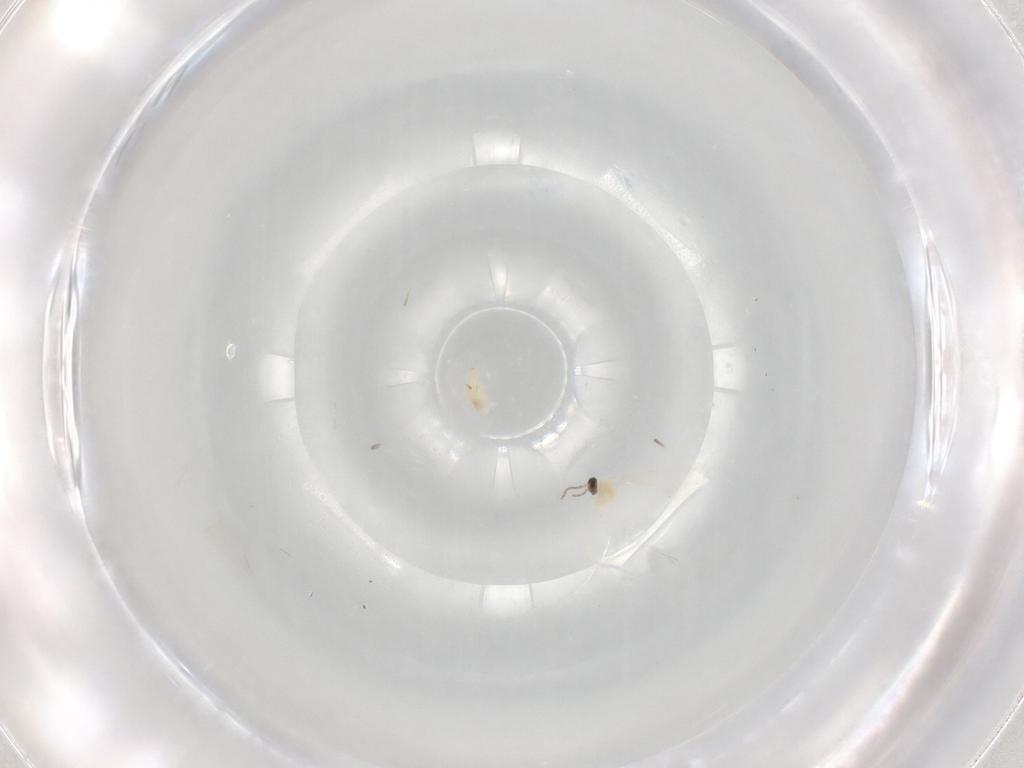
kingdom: Animalia
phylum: Arthropoda
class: Insecta
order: Diptera
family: Cecidomyiidae
